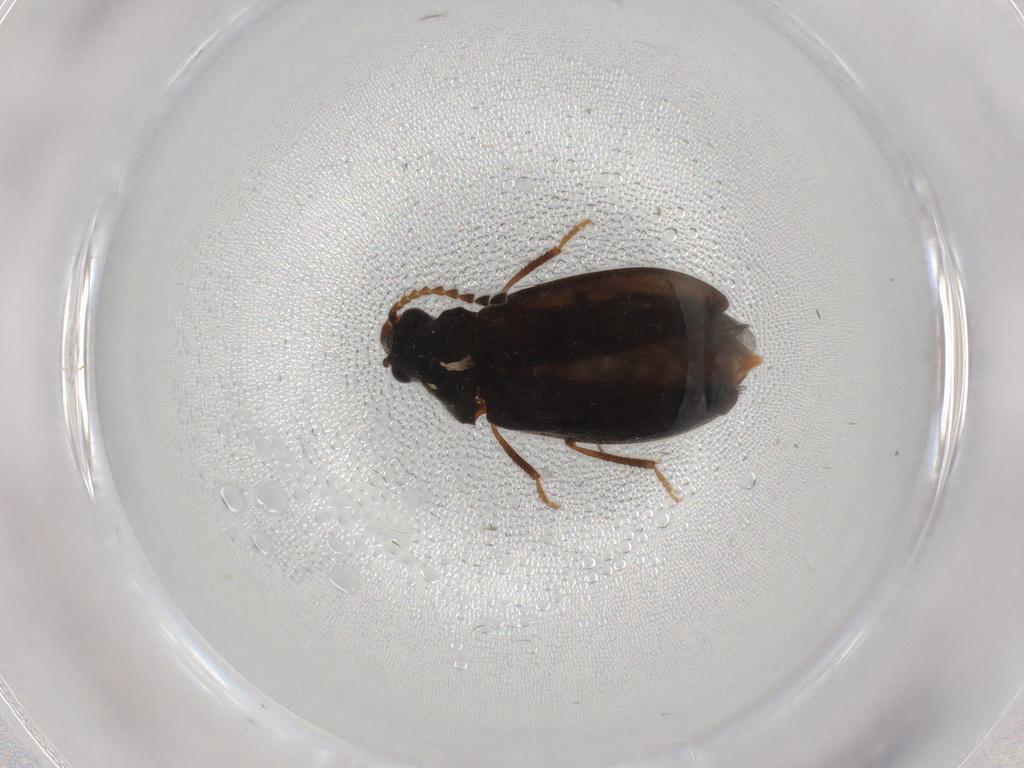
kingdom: Animalia
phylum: Arthropoda
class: Insecta
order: Coleoptera
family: Ptilodactylidae
